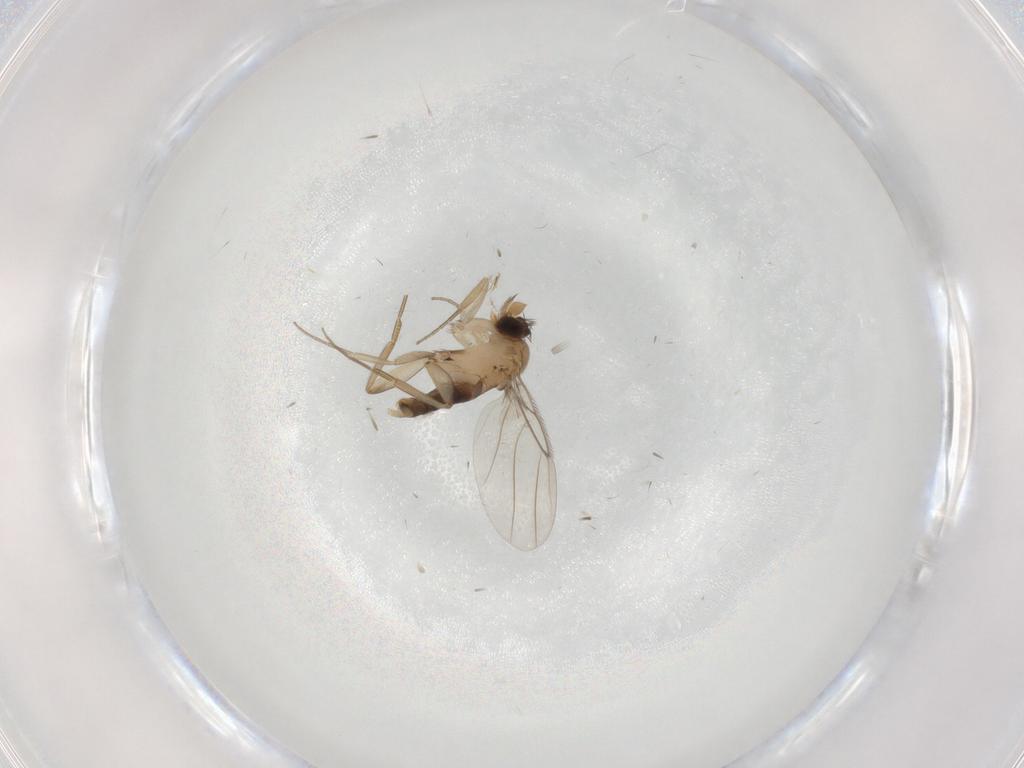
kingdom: Animalia
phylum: Arthropoda
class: Insecta
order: Diptera
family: Phoridae
